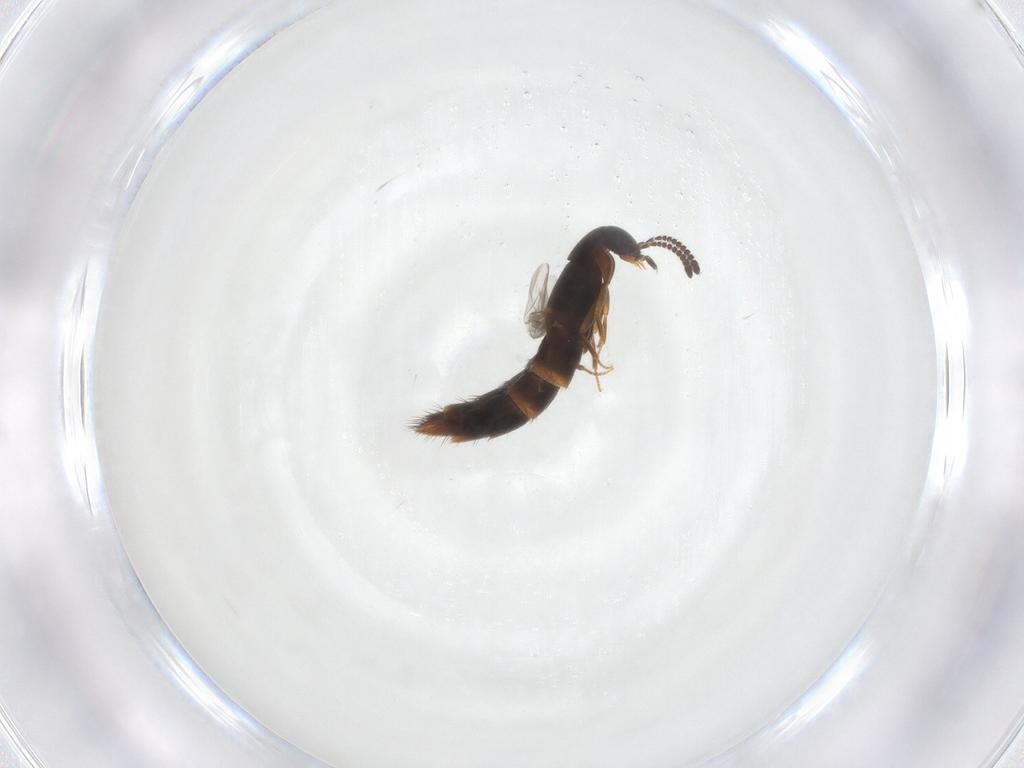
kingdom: Animalia
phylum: Arthropoda
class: Insecta
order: Coleoptera
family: Staphylinidae
